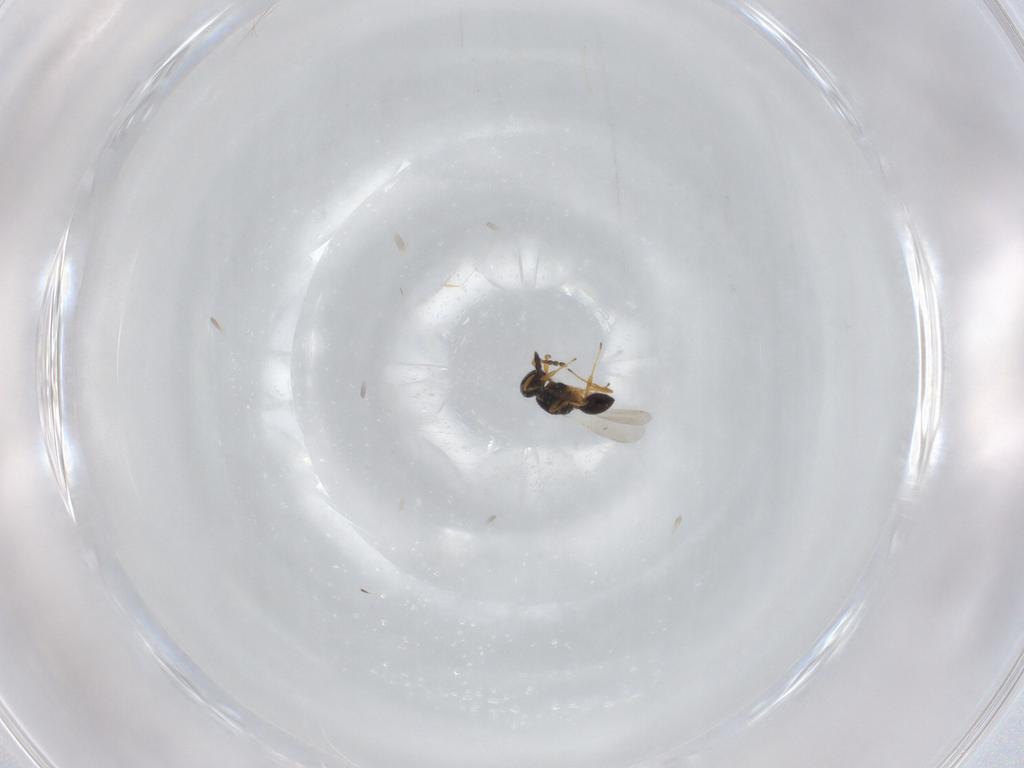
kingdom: Animalia
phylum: Arthropoda
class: Insecta
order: Hymenoptera
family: Platygastridae
